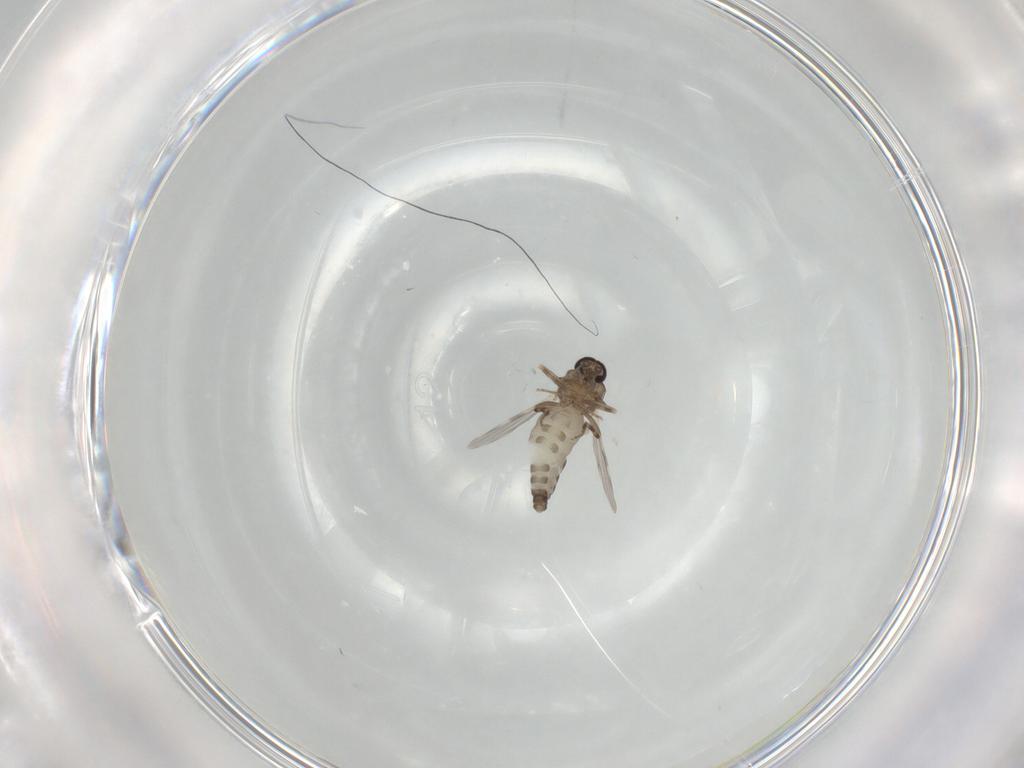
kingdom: Animalia
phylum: Arthropoda
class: Insecta
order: Diptera
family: Ceratopogonidae
